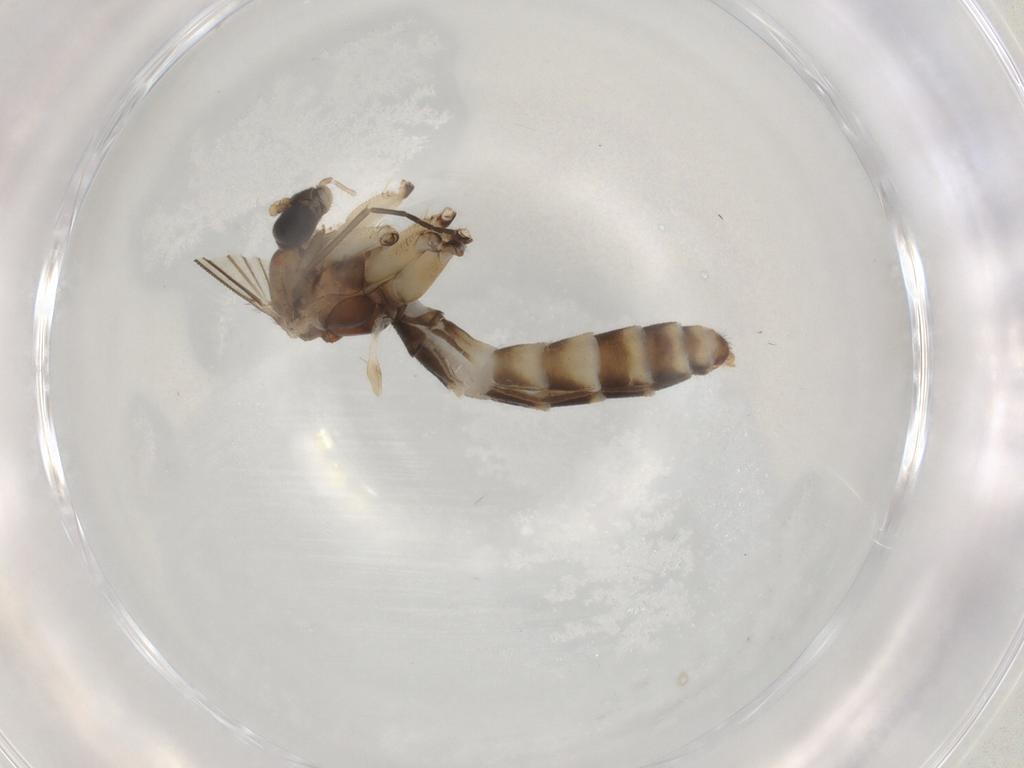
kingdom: Animalia
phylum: Arthropoda
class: Insecta
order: Diptera
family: Mycetophilidae
